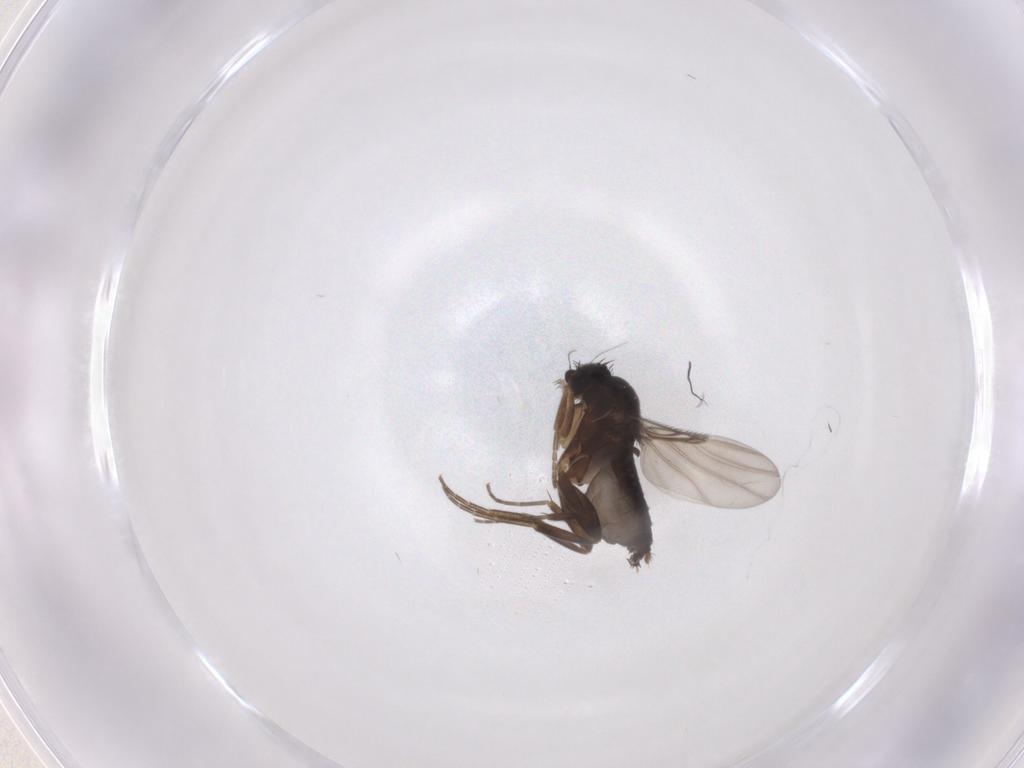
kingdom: Animalia
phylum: Arthropoda
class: Insecta
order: Diptera
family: Phoridae
